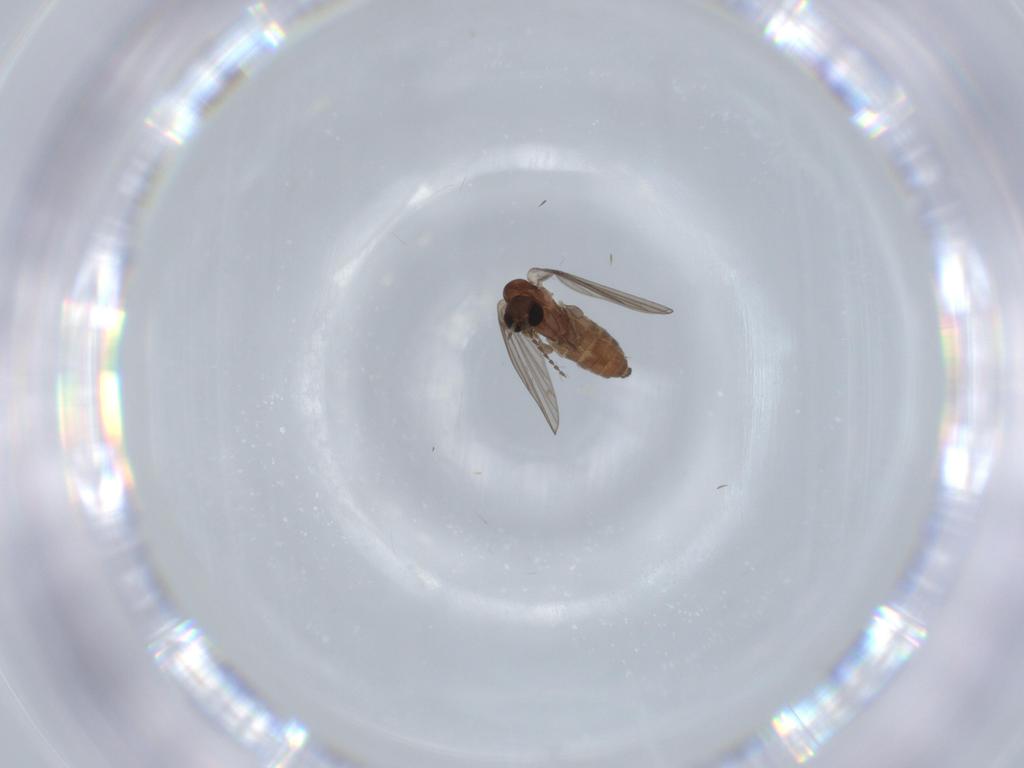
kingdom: Animalia
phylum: Arthropoda
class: Insecta
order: Diptera
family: Psychodidae
